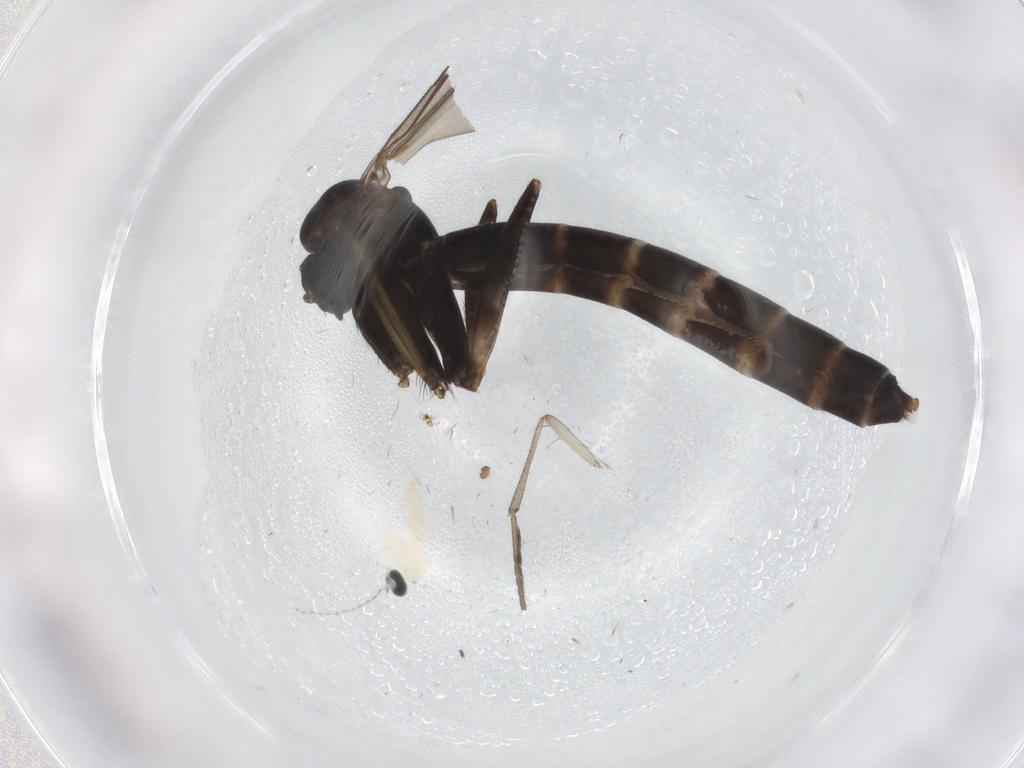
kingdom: Animalia
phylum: Arthropoda
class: Insecta
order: Diptera
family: Ditomyiidae
